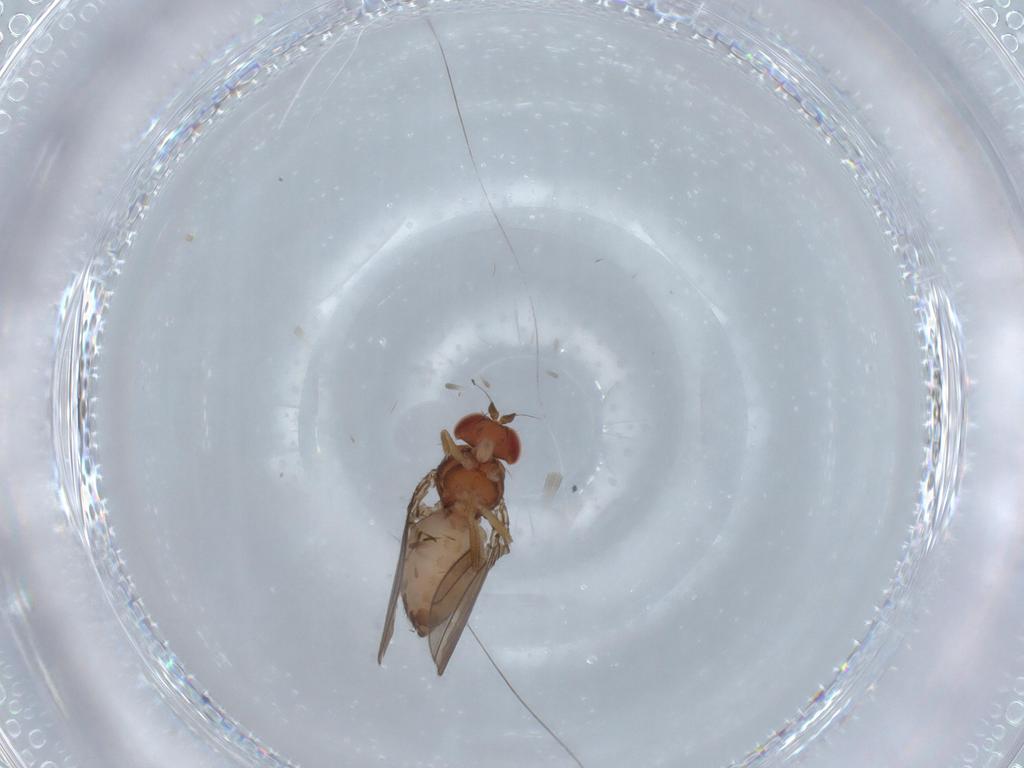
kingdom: Animalia
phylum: Arthropoda
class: Insecta
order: Diptera
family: Drosophilidae
